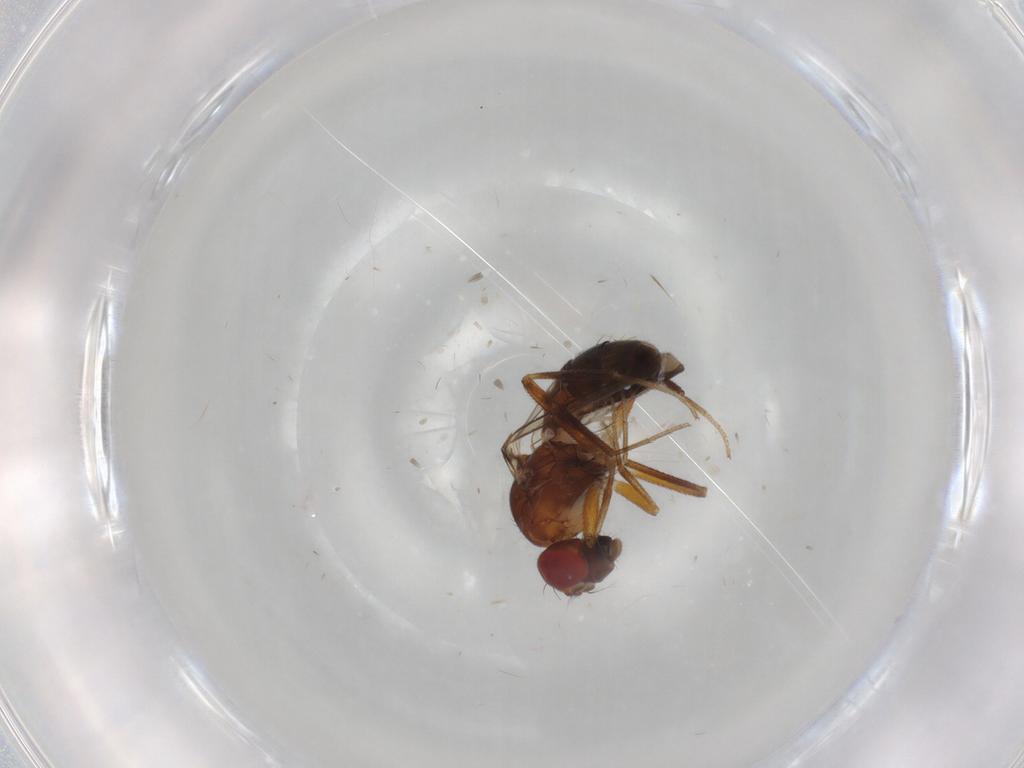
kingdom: Animalia
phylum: Arthropoda
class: Insecta
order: Diptera
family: Drosophilidae
